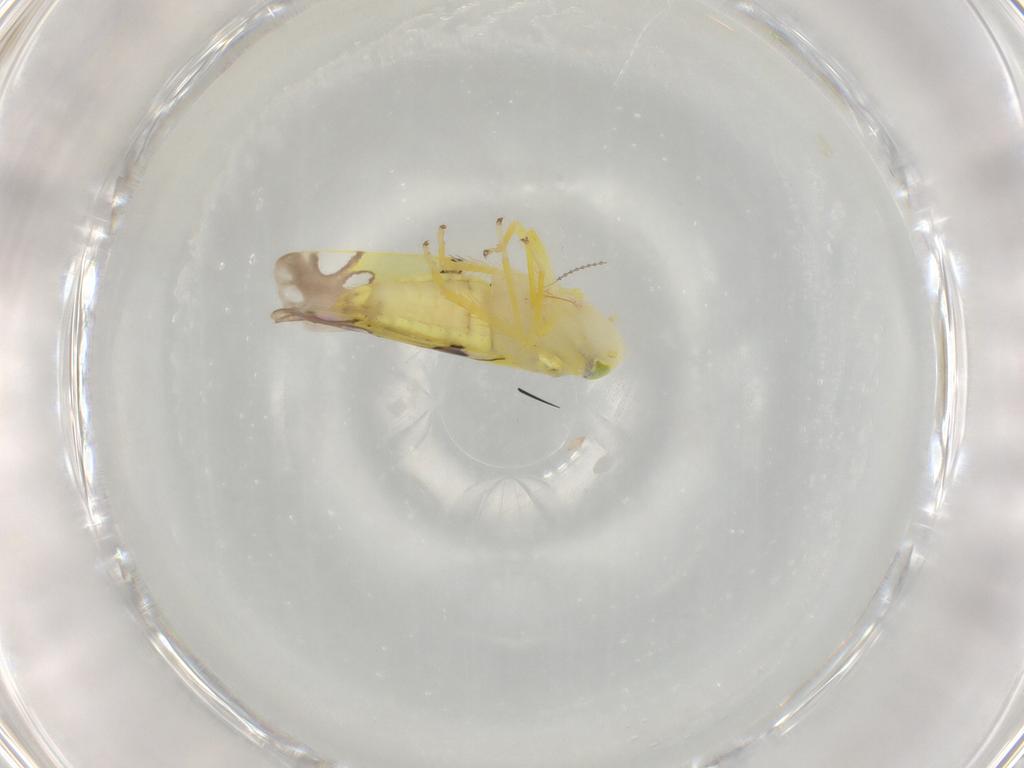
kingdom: Animalia
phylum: Arthropoda
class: Insecta
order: Hemiptera
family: Cicadellidae
